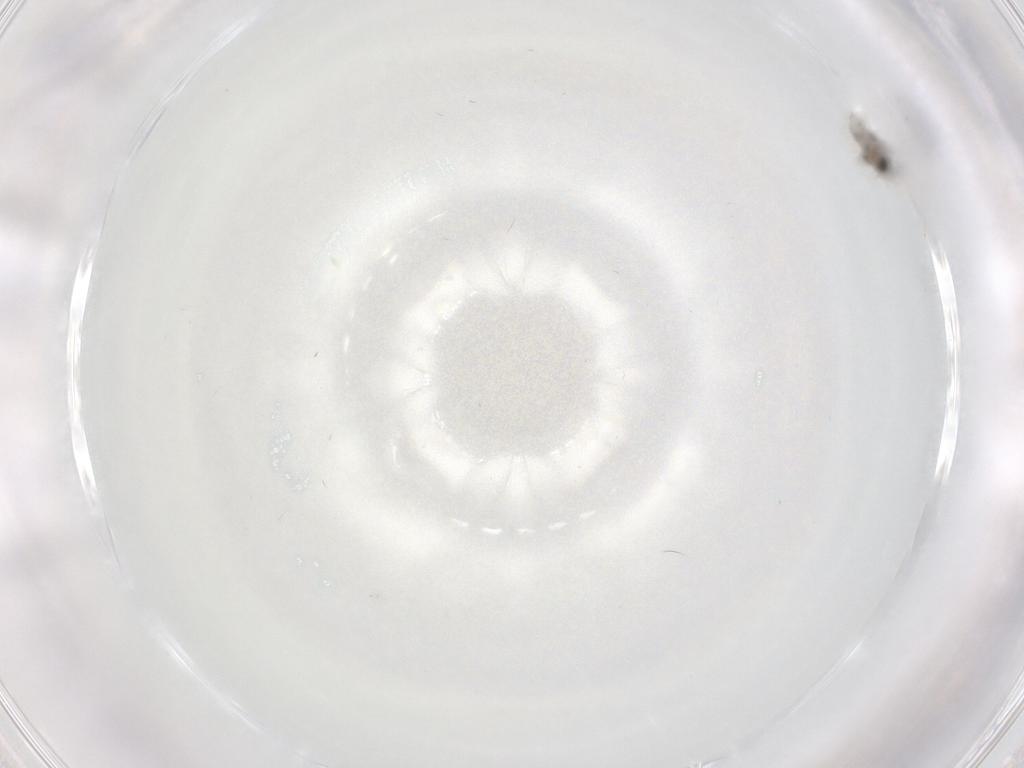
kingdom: Animalia
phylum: Arthropoda
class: Insecta
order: Diptera
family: Cecidomyiidae
